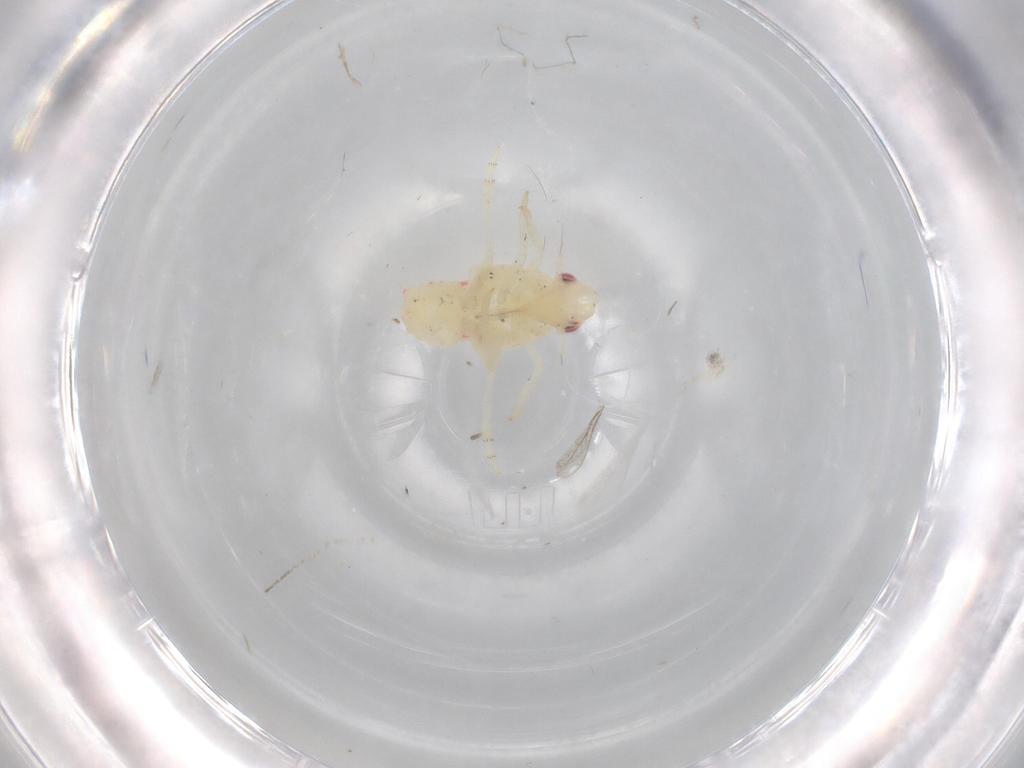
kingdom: Animalia
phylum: Arthropoda
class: Insecta
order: Hemiptera
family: Flatidae
